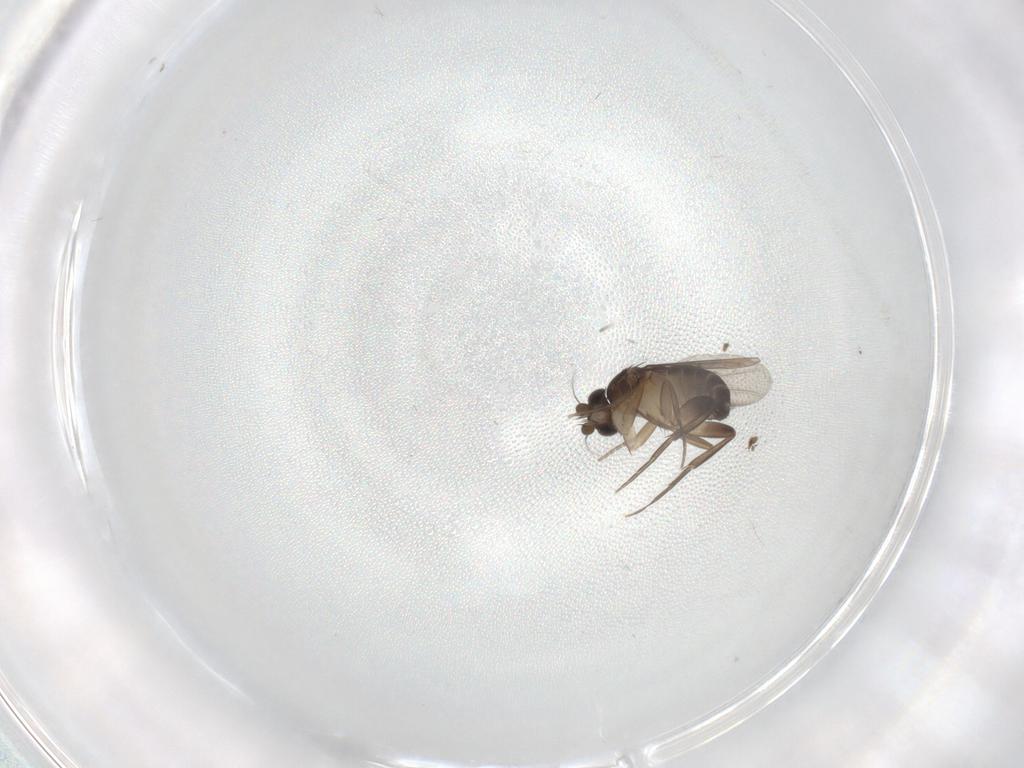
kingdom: Animalia
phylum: Arthropoda
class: Insecta
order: Diptera
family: Phoridae
